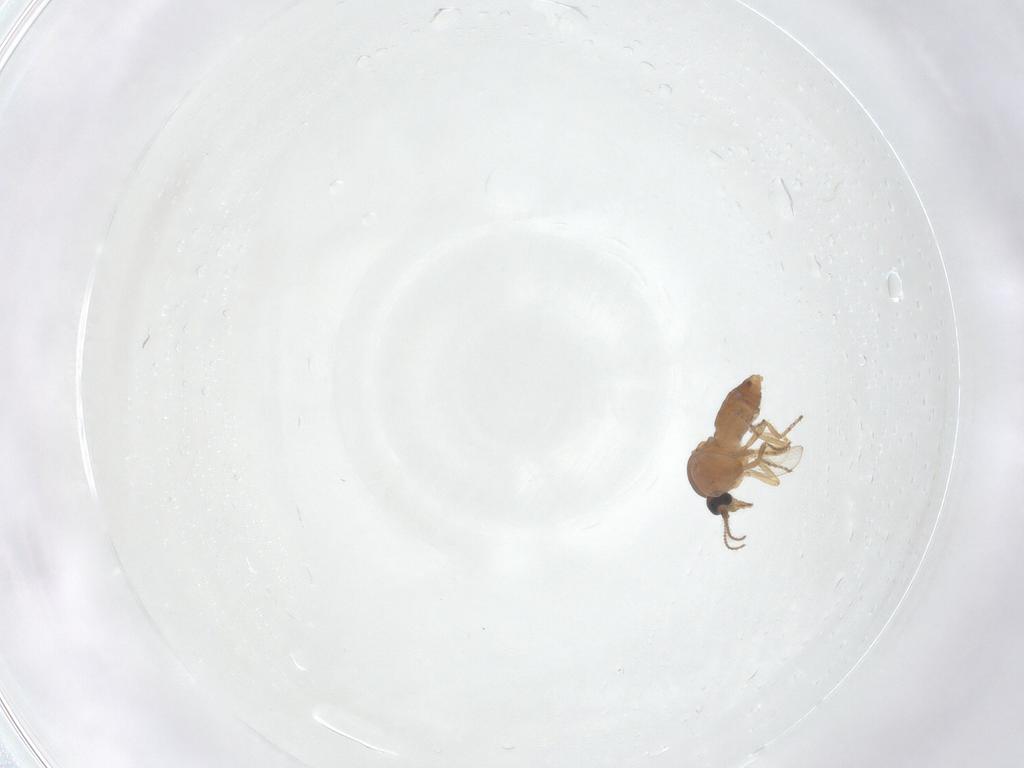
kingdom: Animalia
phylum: Arthropoda
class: Insecta
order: Diptera
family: Ceratopogonidae
